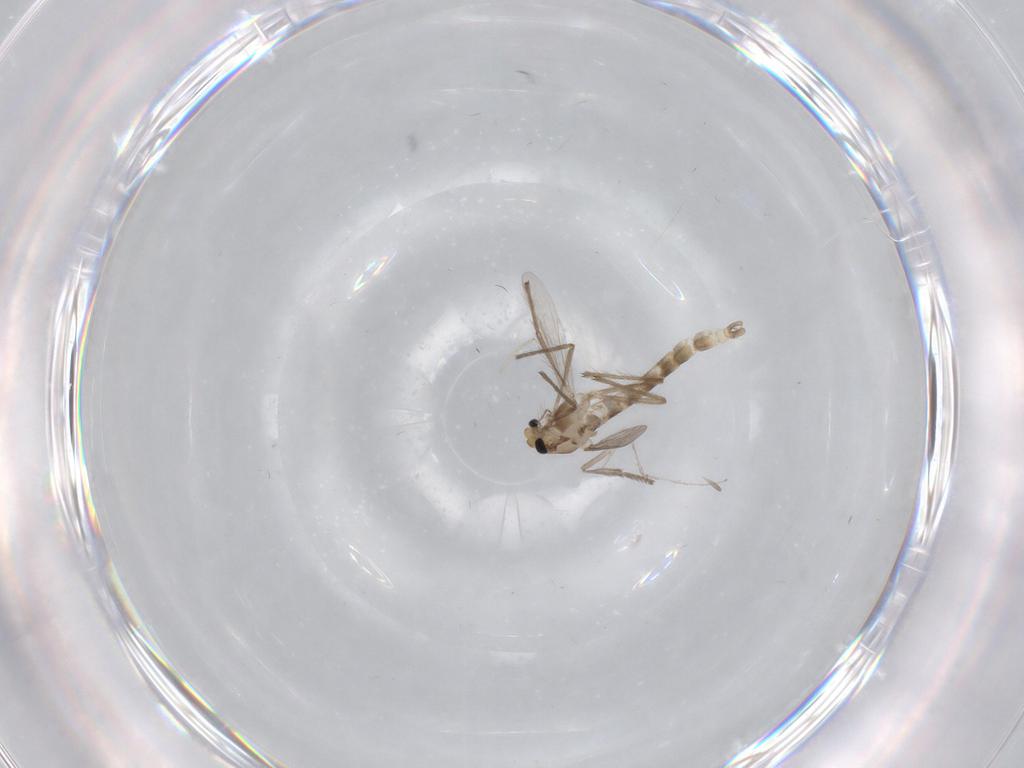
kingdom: Animalia
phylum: Arthropoda
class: Insecta
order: Diptera
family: Chironomidae
